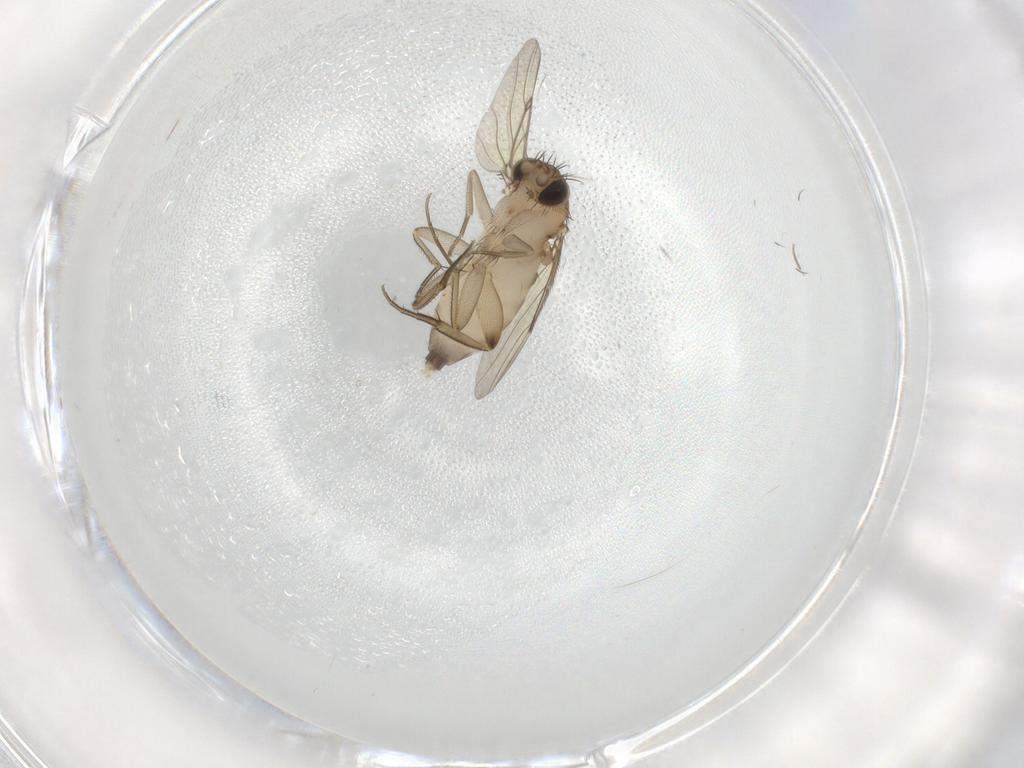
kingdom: Animalia
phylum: Arthropoda
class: Insecta
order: Diptera
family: Phoridae
